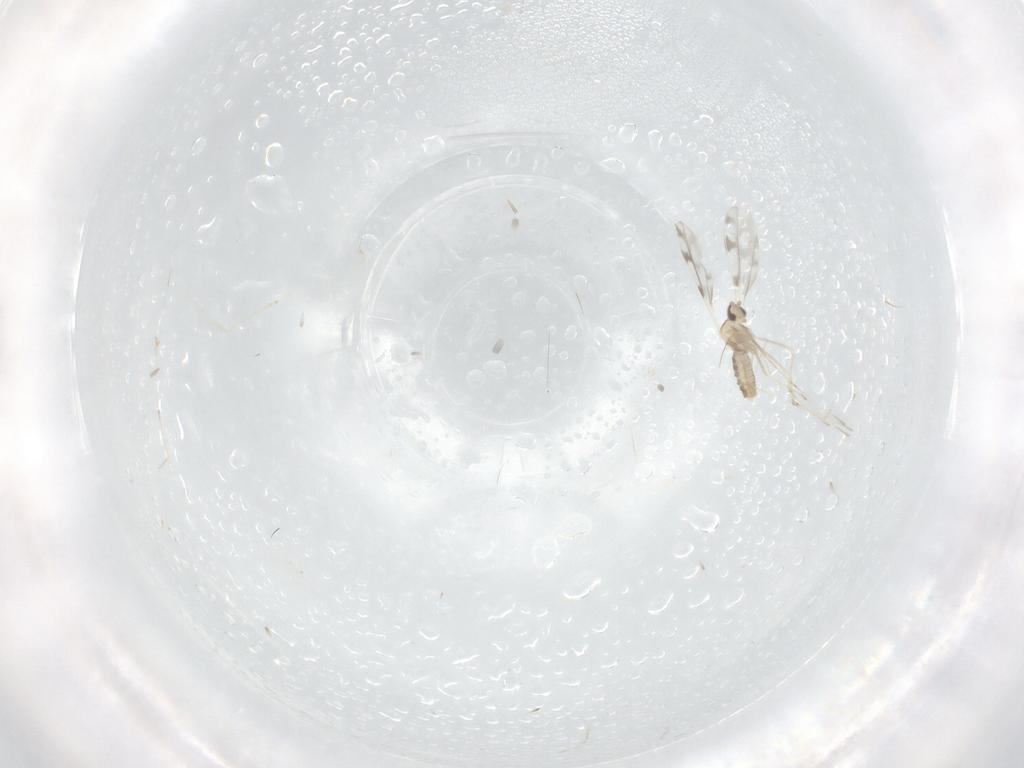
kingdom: Animalia
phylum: Arthropoda
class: Insecta
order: Diptera
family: Cecidomyiidae
